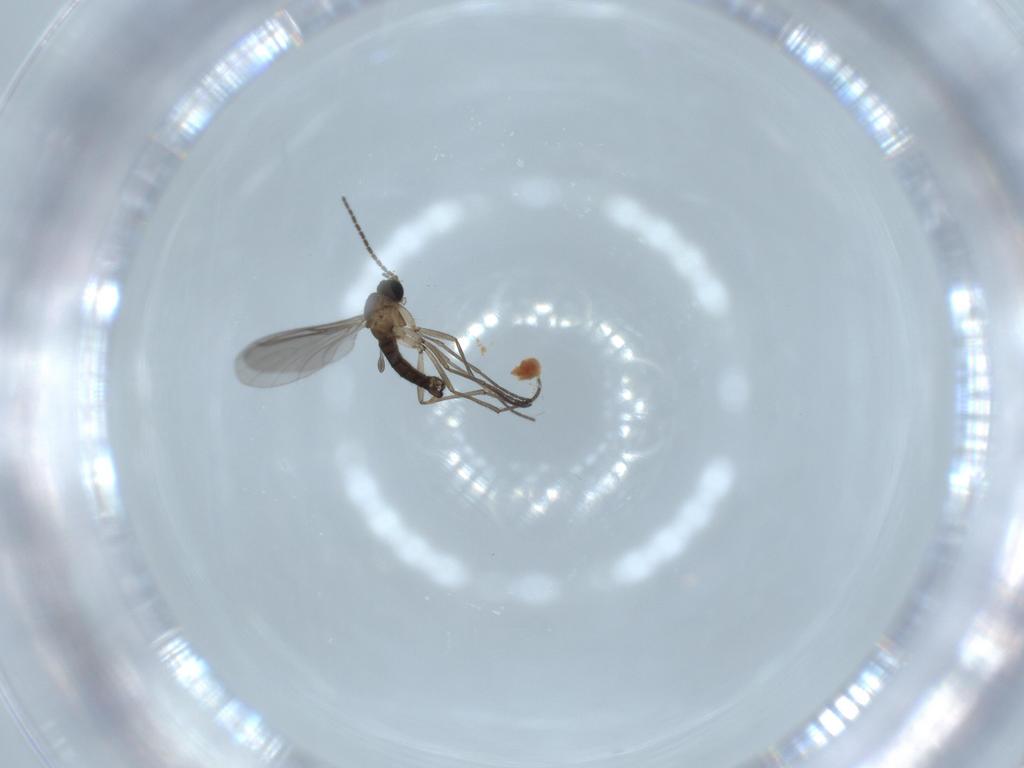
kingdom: Animalia
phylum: Arthropoda
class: Insecta
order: Diptera
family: Sciaridae
